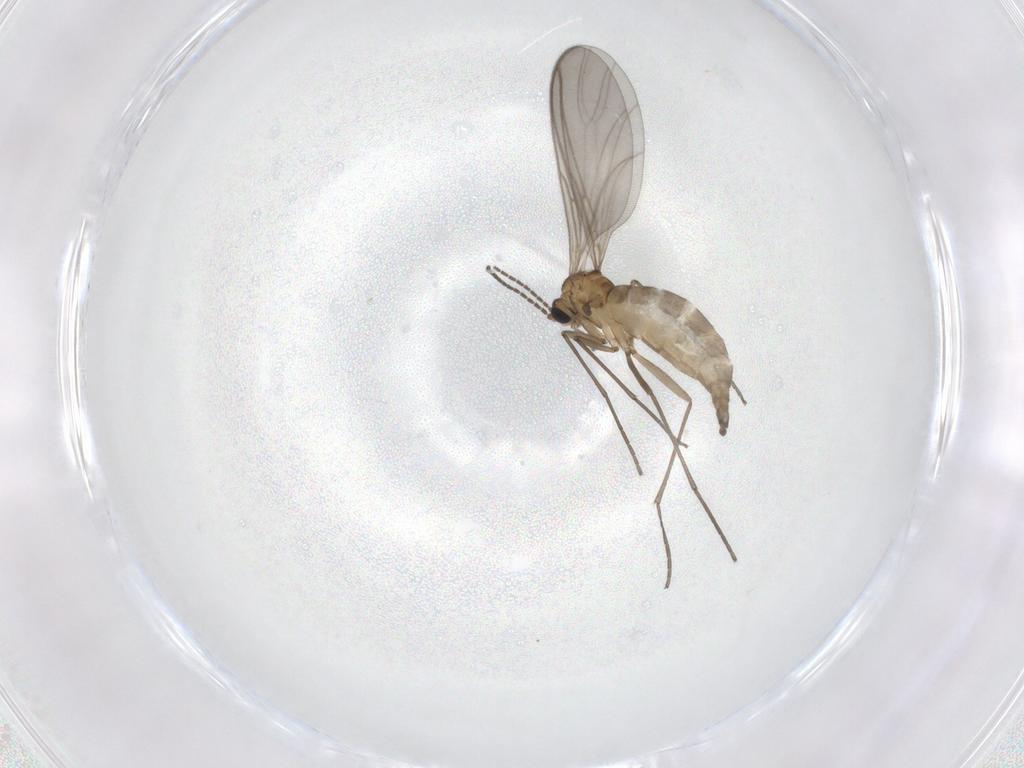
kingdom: Animalia
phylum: Arthropoda
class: Insecta
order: Diptera
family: Sciaridae
